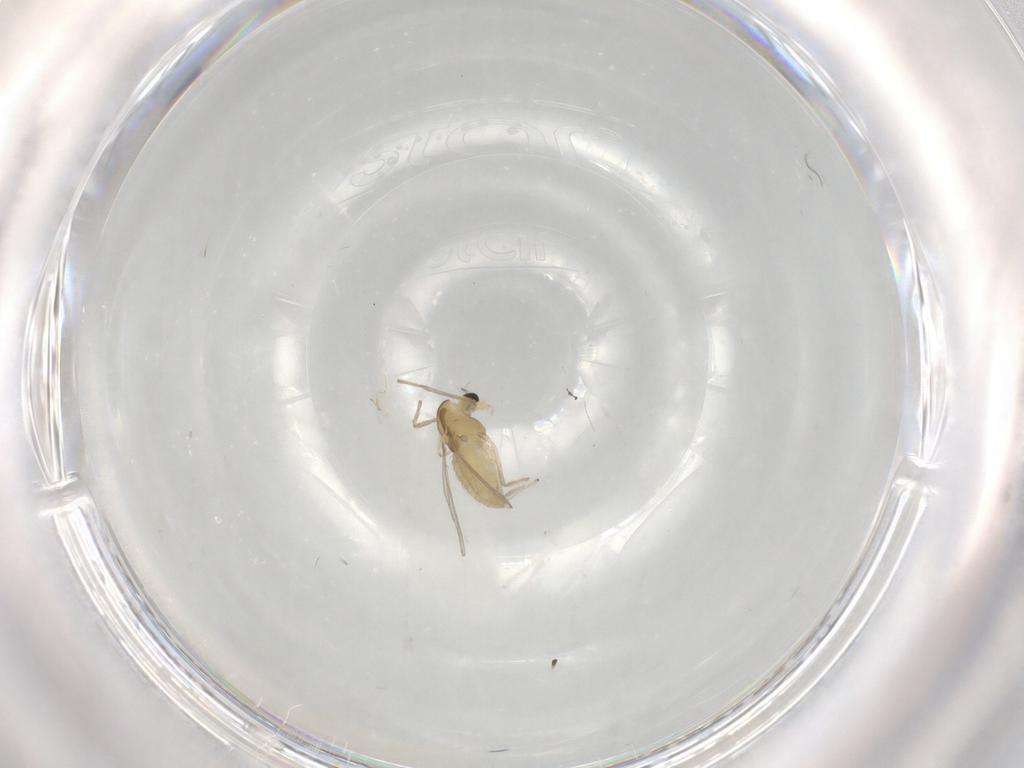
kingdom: Animalia
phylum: Arthropoda
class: Insecta
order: Diptera
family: Chironomidae
